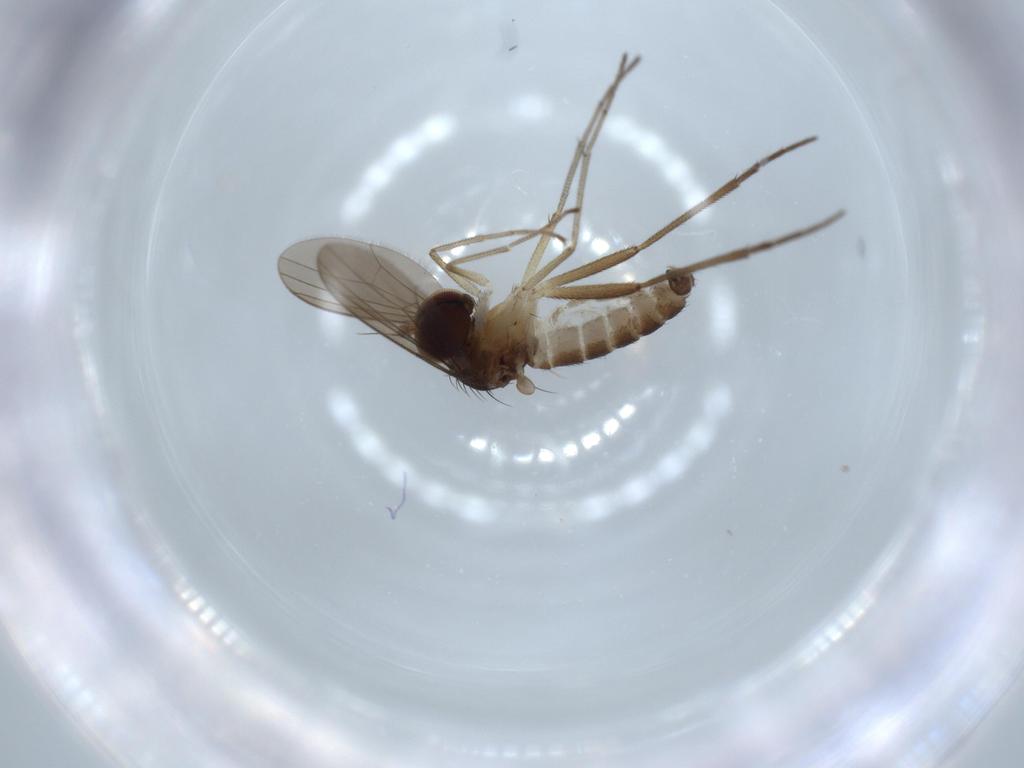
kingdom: Animalia
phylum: Arthropoda
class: Insecta
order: Diptera
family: Dolichopodidae
